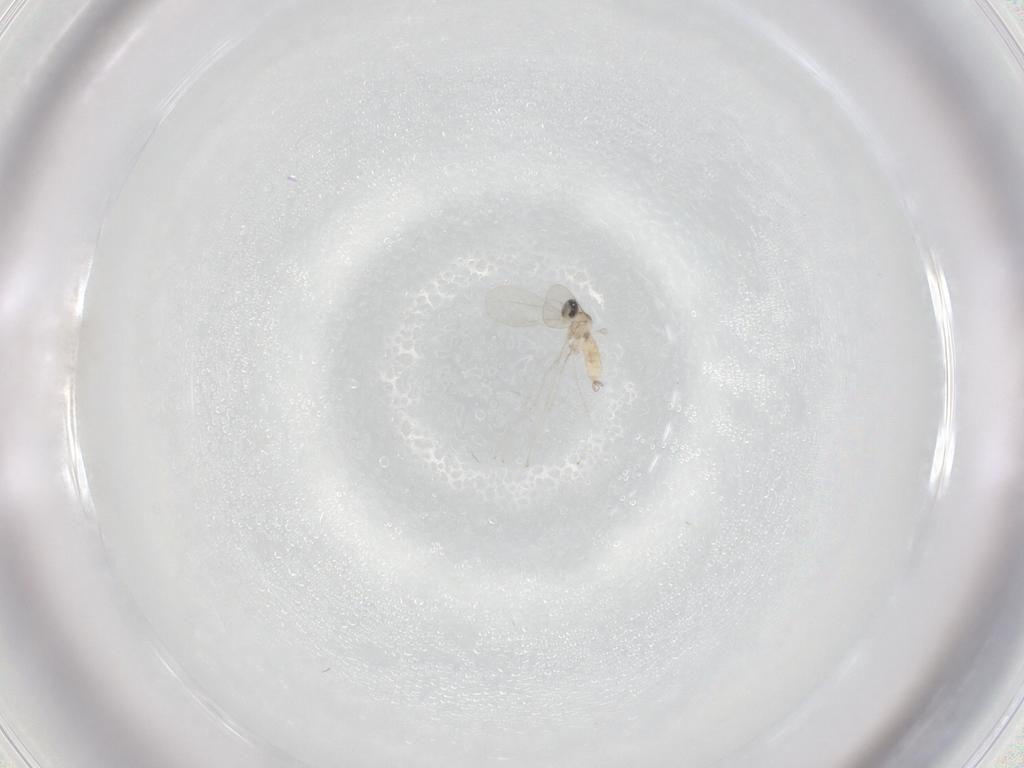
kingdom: Animalia
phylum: Arthropoda
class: Insecta
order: Diptera
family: Cecidomyiidae
